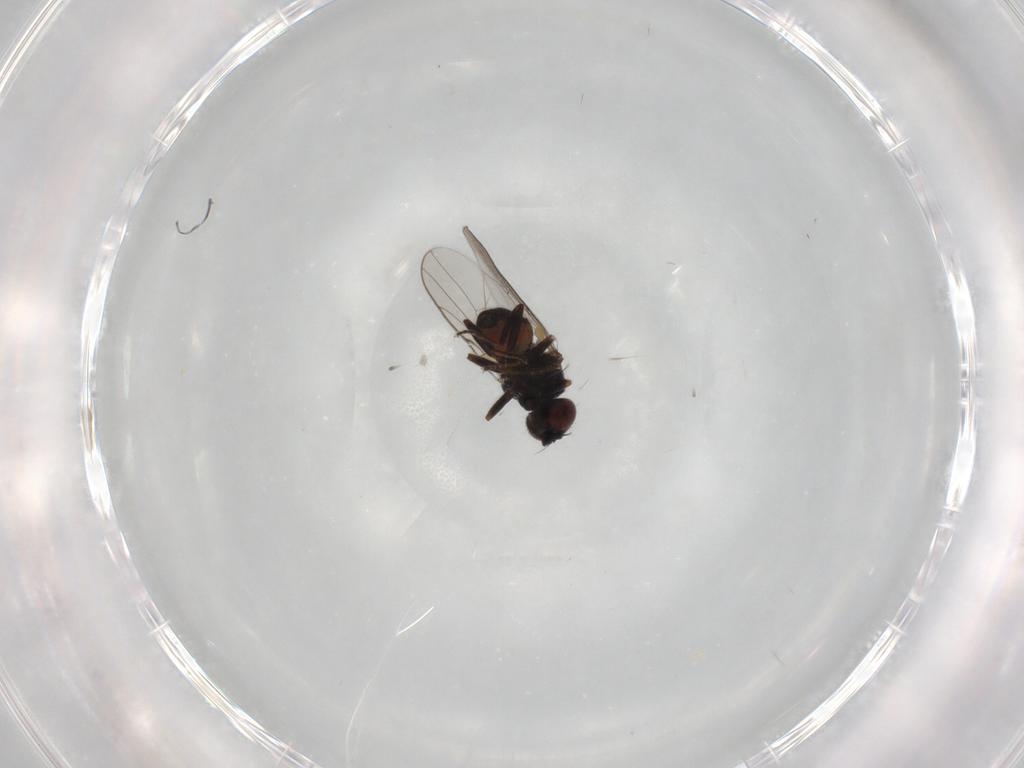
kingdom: Animalia
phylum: Arthropoda
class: Insecta
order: Diptera
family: Chloropidae
